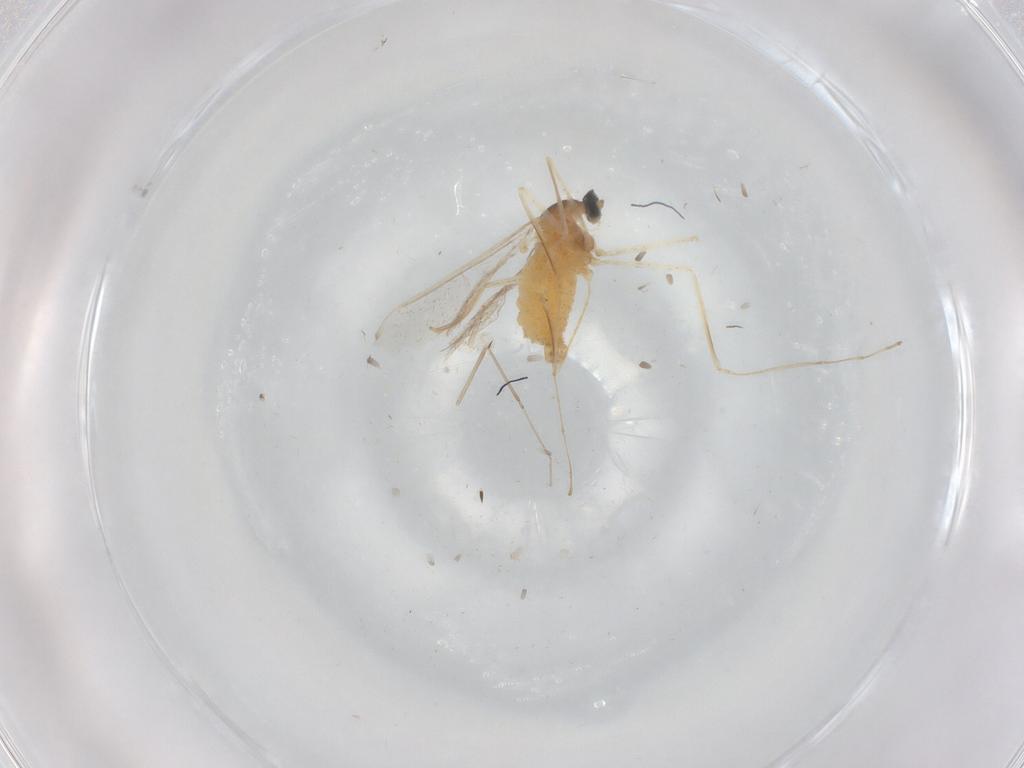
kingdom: Animalia
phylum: Arthropoda
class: Insecta
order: Diptera
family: Cecidomyiidae
